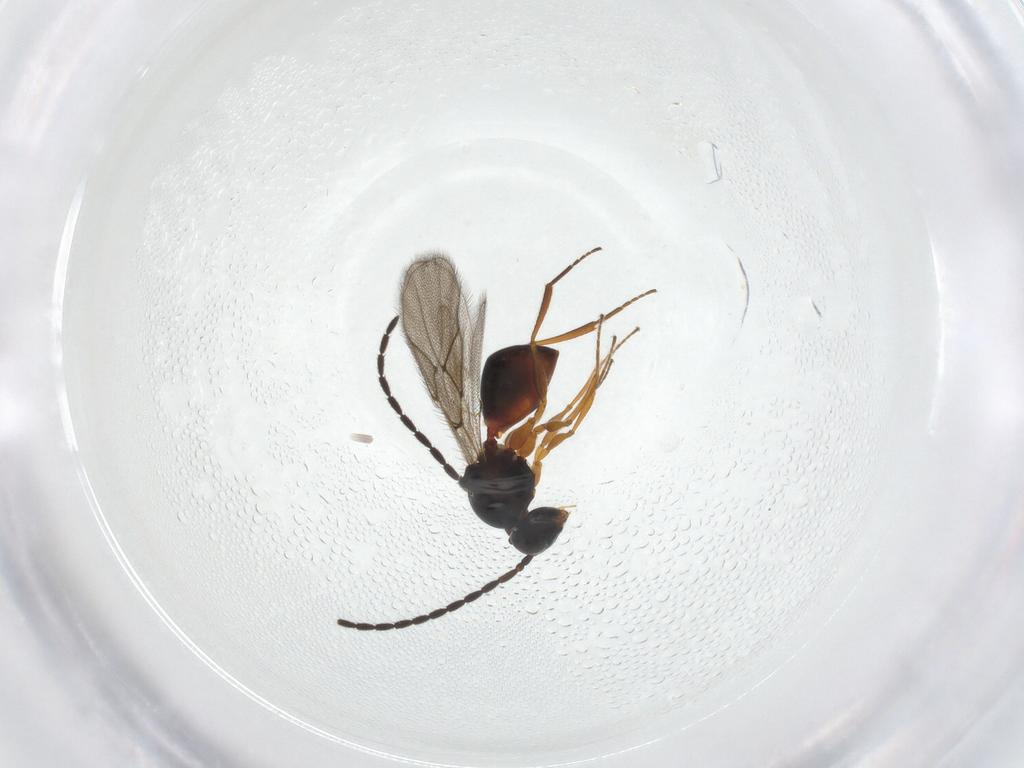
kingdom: Animalia
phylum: Arthropoda
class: Insecta
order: Hymenoptera
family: Figitidae
